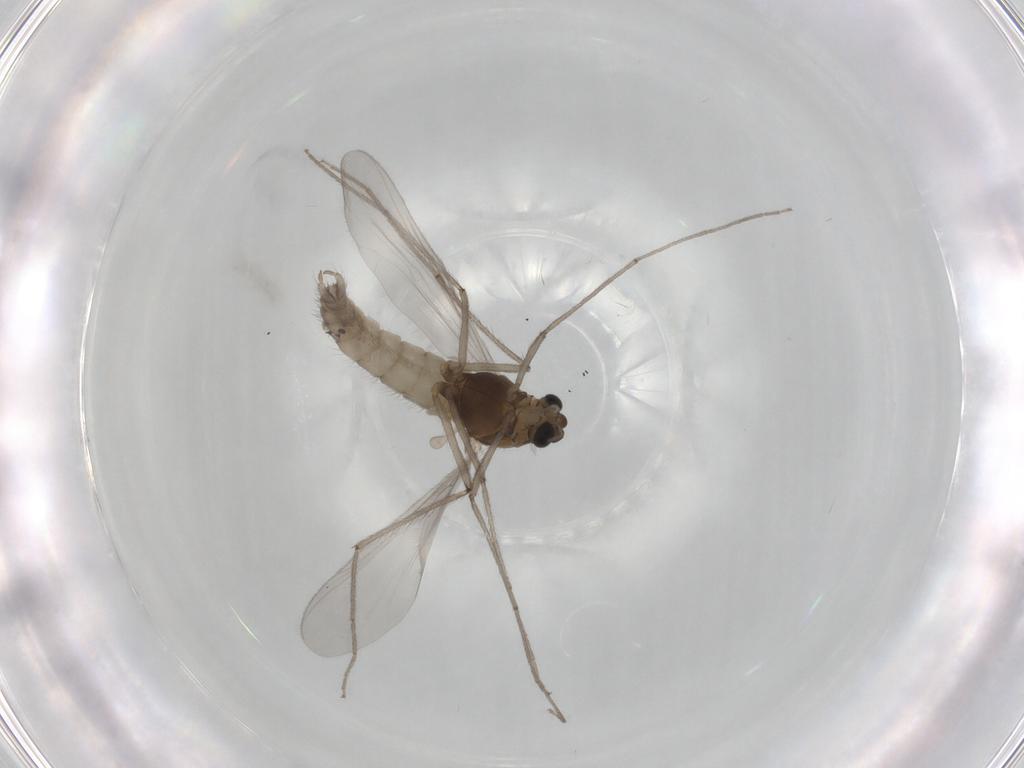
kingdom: Animalia
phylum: Arthropoda
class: Insecta
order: Diptera
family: Chironomidae
